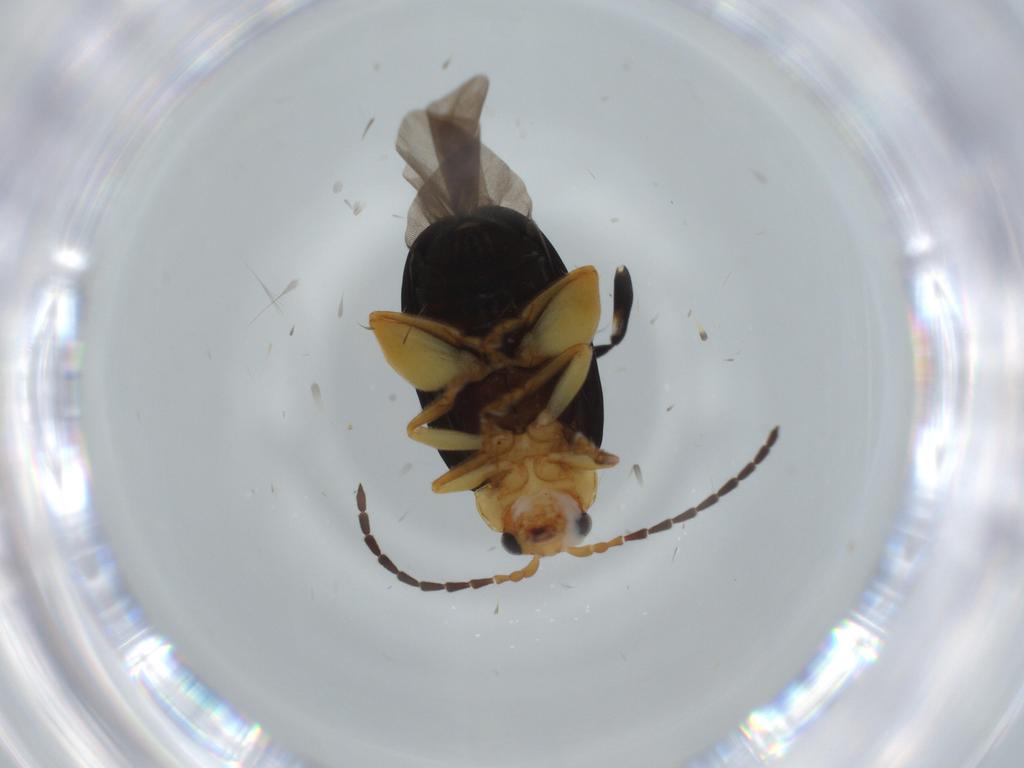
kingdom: Animalia
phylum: Arthropoda
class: Insecta
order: Coleoptera
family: Chrysomelidae
